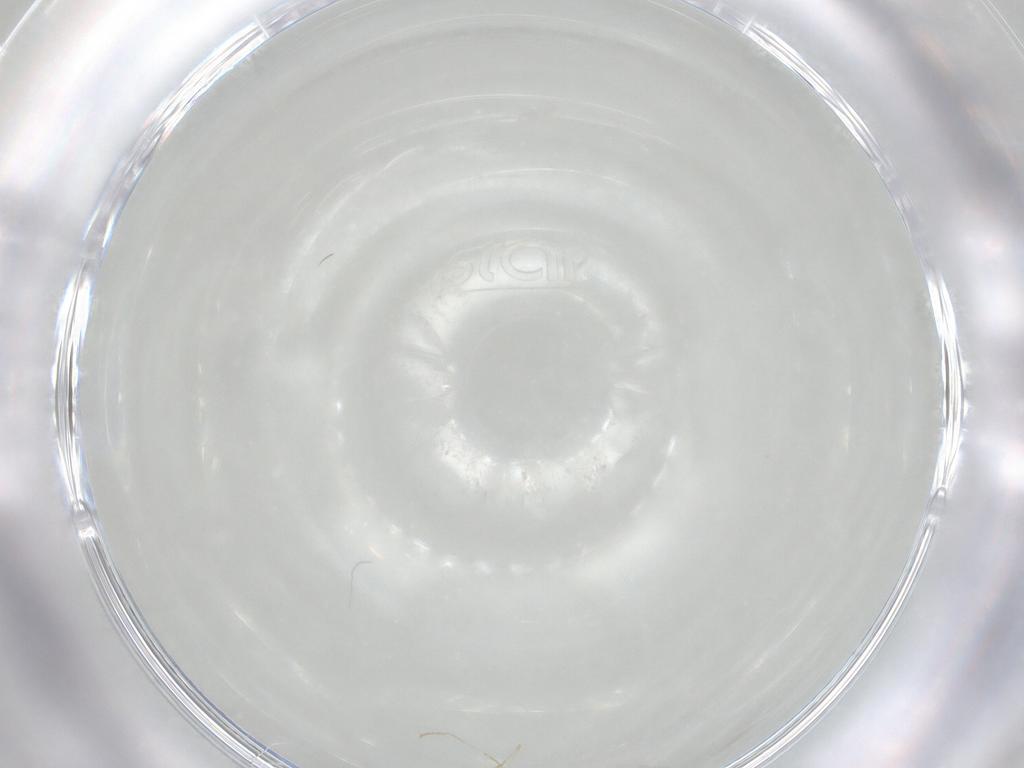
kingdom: Animalia
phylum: Arthropoda
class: Insecta
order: Diptera
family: Cecidomyiidae
